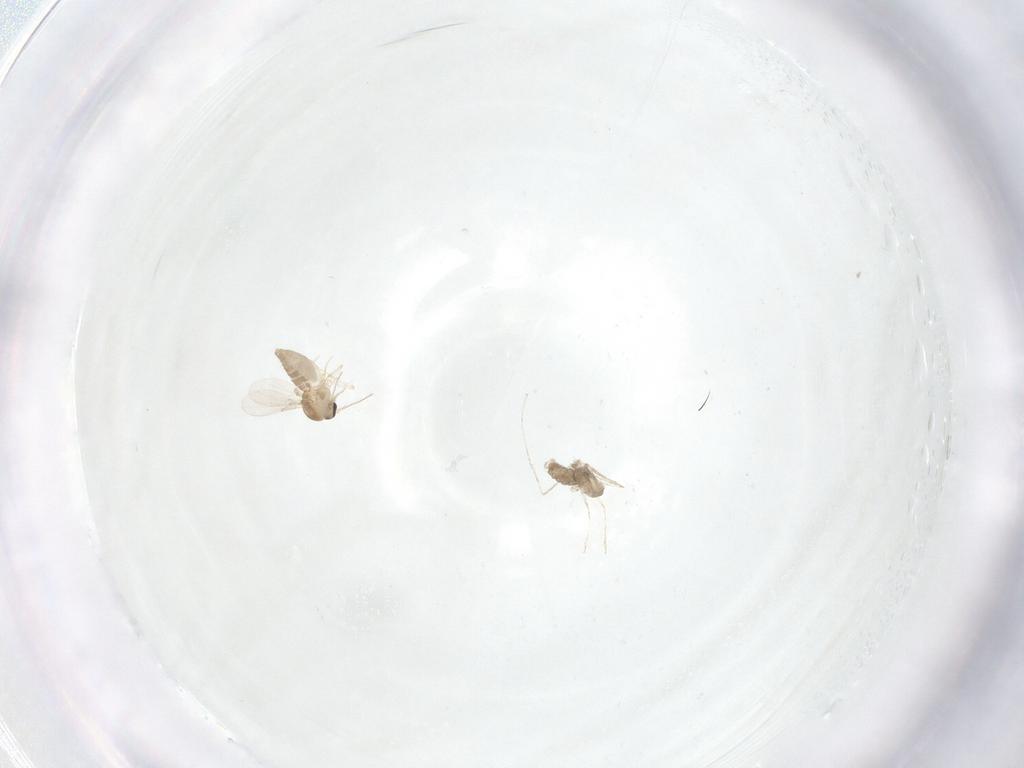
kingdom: Animalia
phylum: Arthropoda
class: Insecta
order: Diptera
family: Ceratopogonidae
